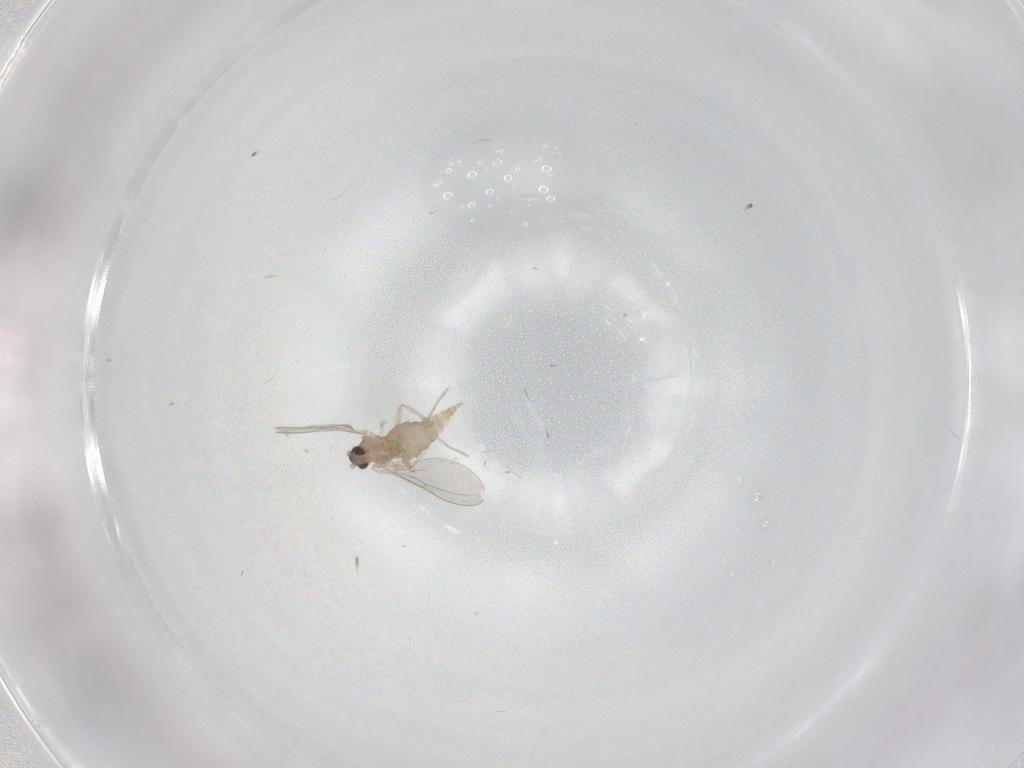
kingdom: Animalia
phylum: Arthropoda
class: Insecta
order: Diptera
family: Cecidomyiidae
